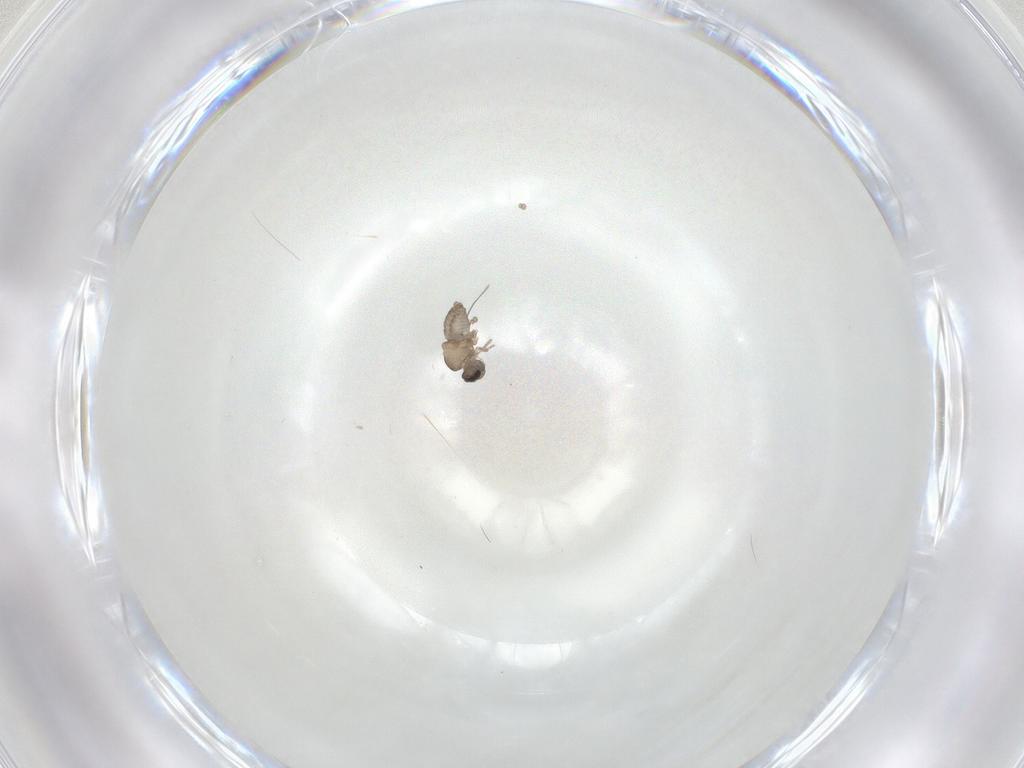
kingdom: Animalia
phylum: Arthropoda
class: Insecta
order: Diptera
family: Cecidomyiidae
